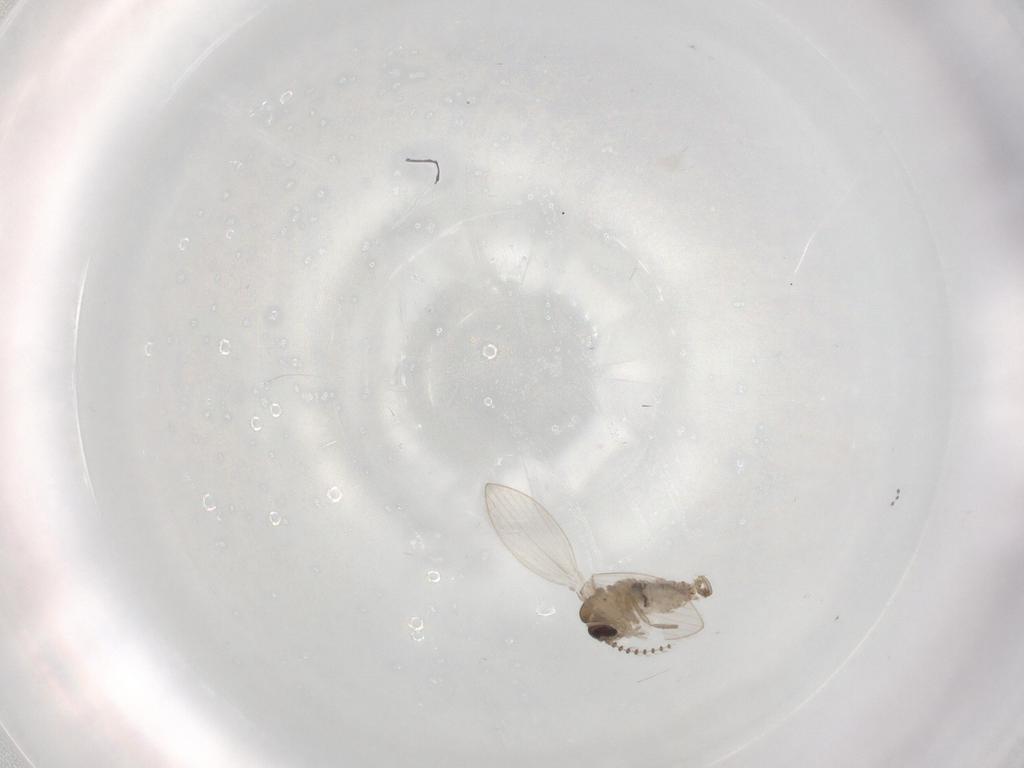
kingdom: Animalia
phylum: Arthropoda
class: Insecta
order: Diptera
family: Psychodidae
